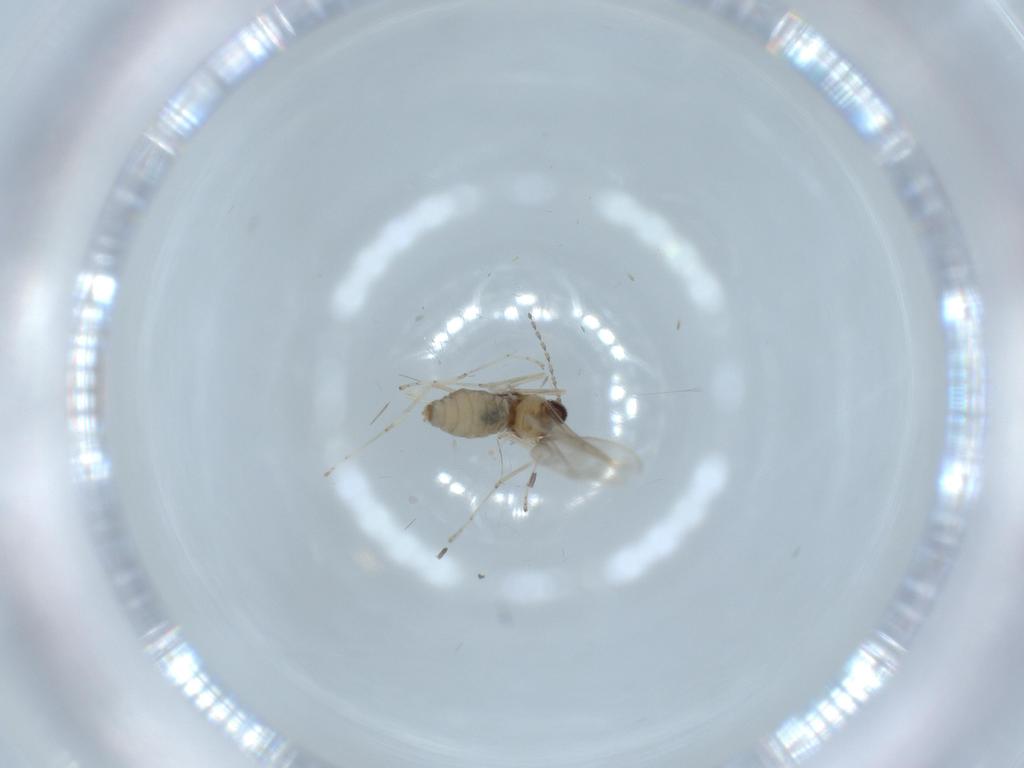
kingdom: Animalia
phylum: Arthropoda
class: Insecta
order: Diptera
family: Cecidomyiidae
